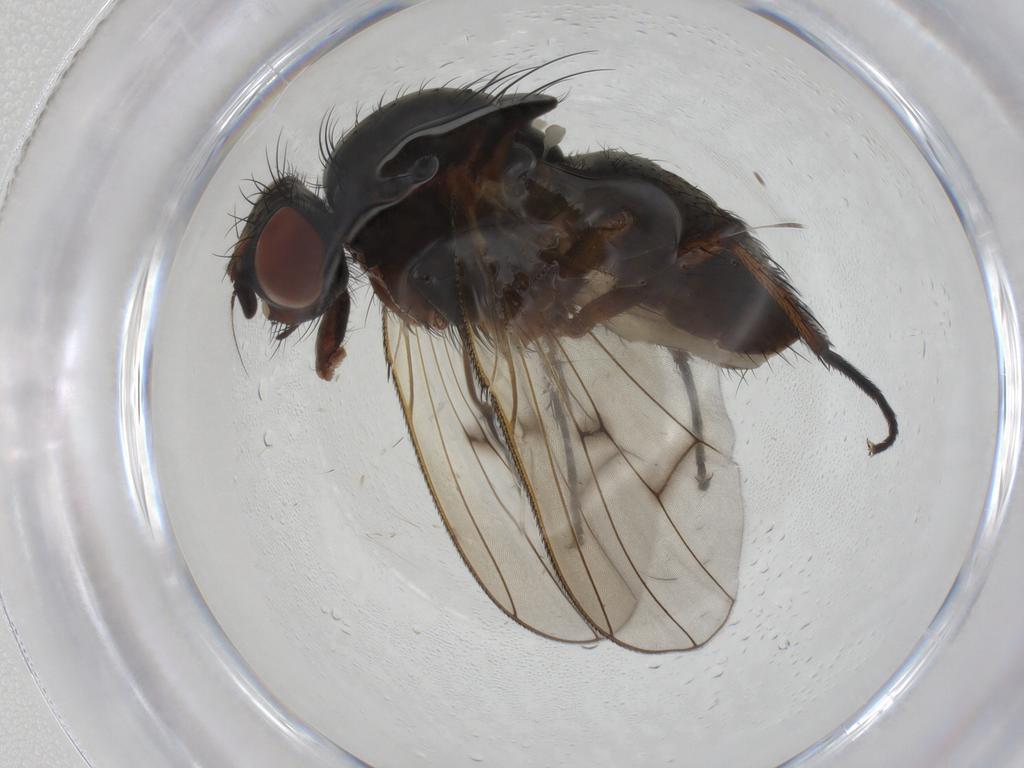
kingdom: Animalia
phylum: Arthropoda
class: Insecta
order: Diptera
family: Anthomyiidae
